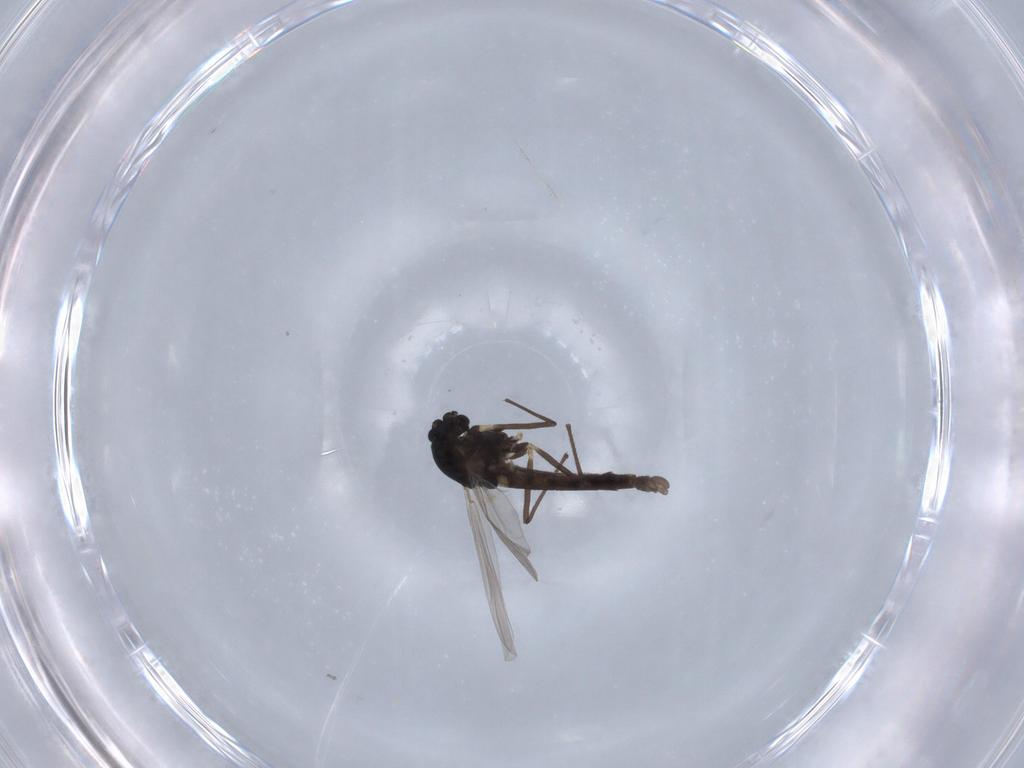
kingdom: Animalia
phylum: Arthropoda
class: Insecta
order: Diptera
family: Chironomidae
